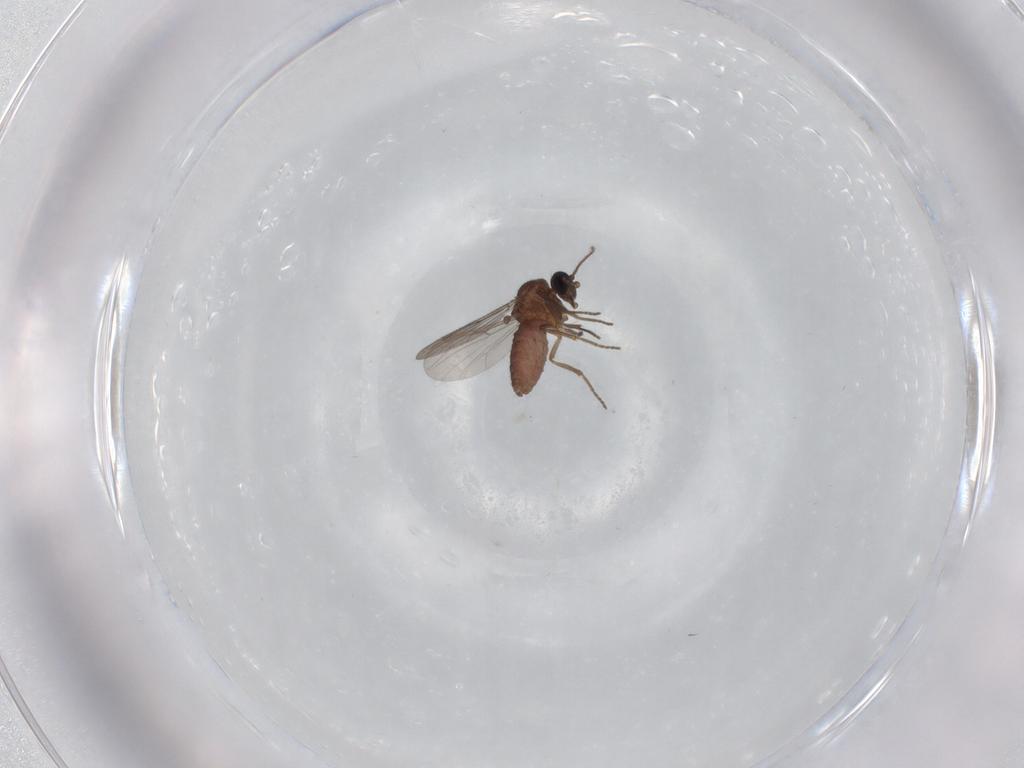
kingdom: Animalia
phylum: Arthropoda
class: Insecta
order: Diptera
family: Ceratopogonidae
